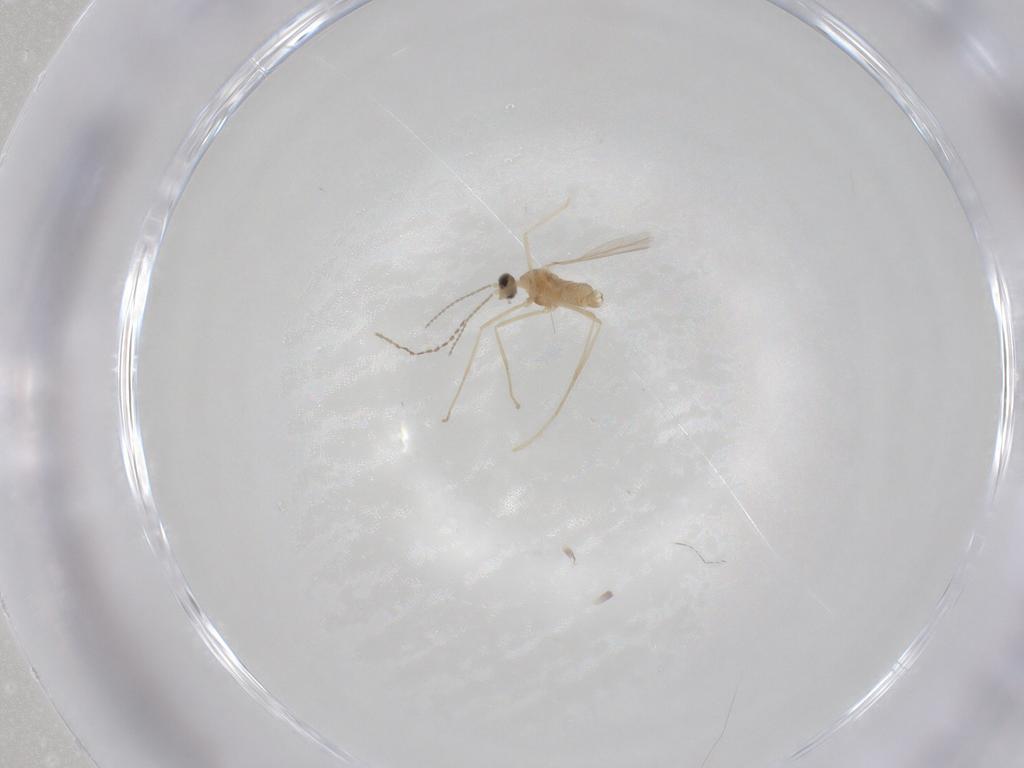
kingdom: Animalia
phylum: Arthropoda
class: Insecta
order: Diptera
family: Cecidomyiidae
